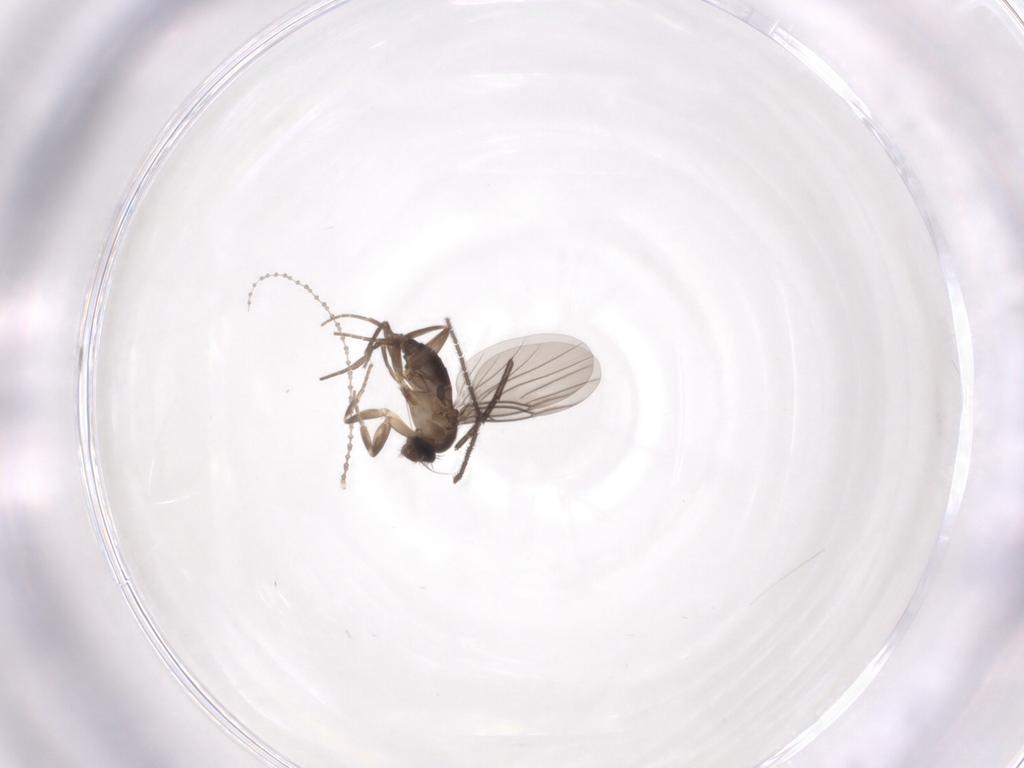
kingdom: Animalia
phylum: Arthropoda
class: Insecta
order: Diptera
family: Cecidomyiidae
